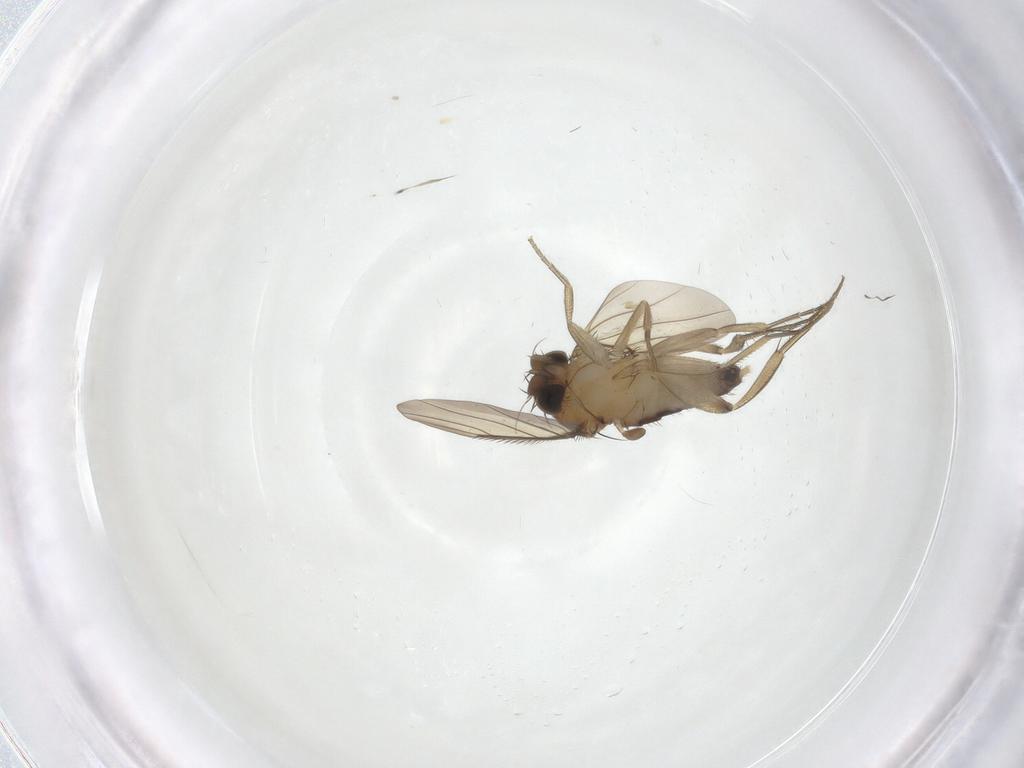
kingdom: Animalia
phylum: Arthropoda
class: Insecta
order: Diptera
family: Phoridae
